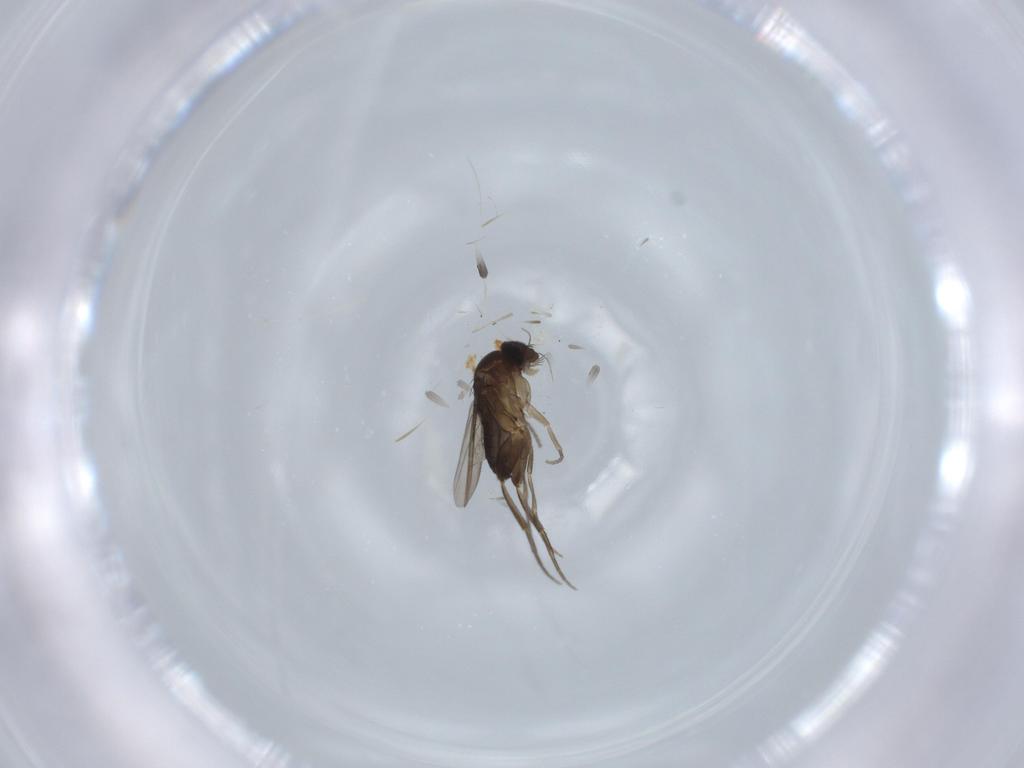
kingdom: Animalia
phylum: Arthropoda
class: Insecta
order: Diptera
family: Phoridae
